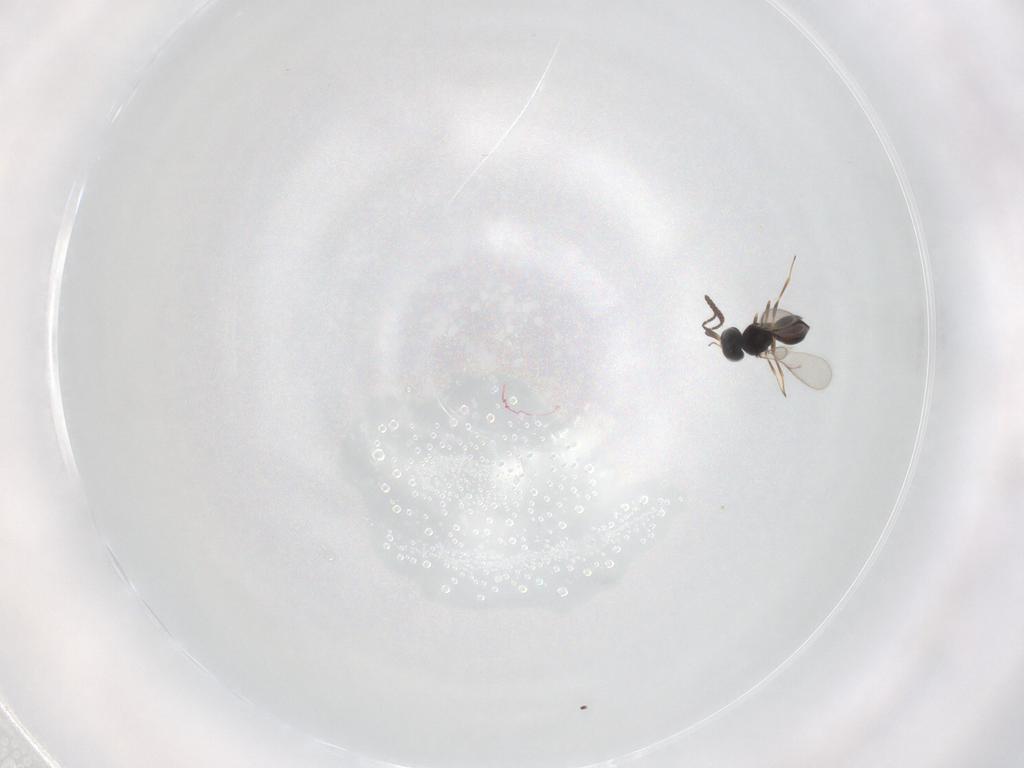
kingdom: Animalia
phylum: Arthropoda
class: Insecta
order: Hymenoptera
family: Scelionidae
